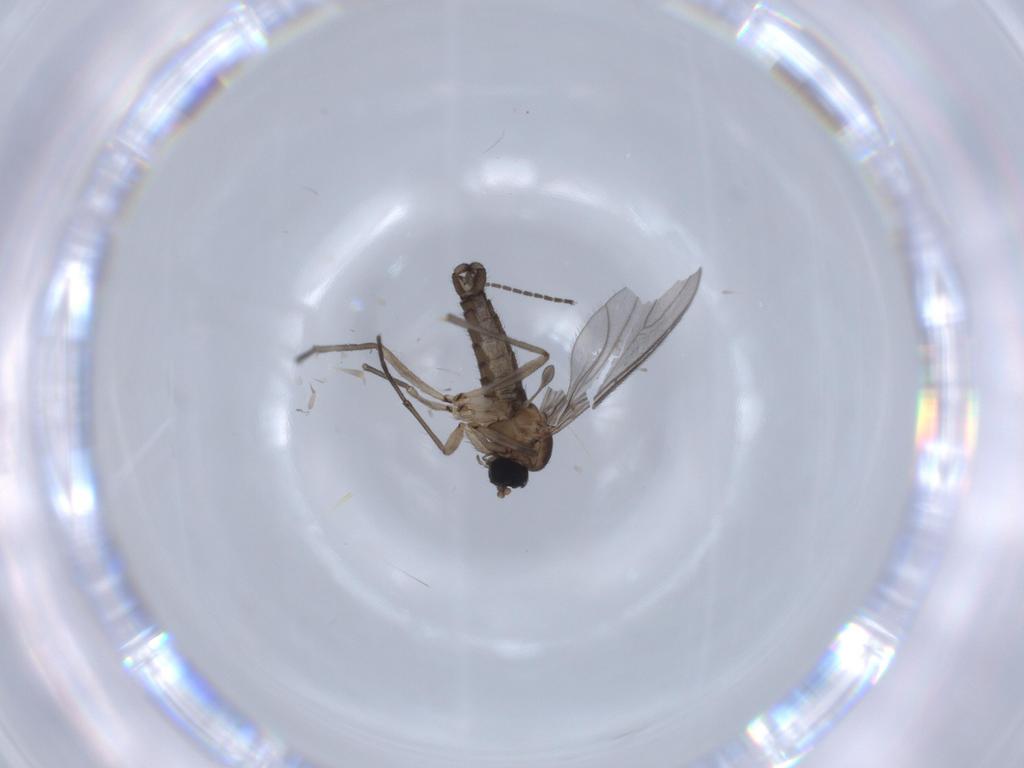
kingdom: Animalia
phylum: Arthropoda
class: Insecta
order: Diptera
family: Sciaridae
